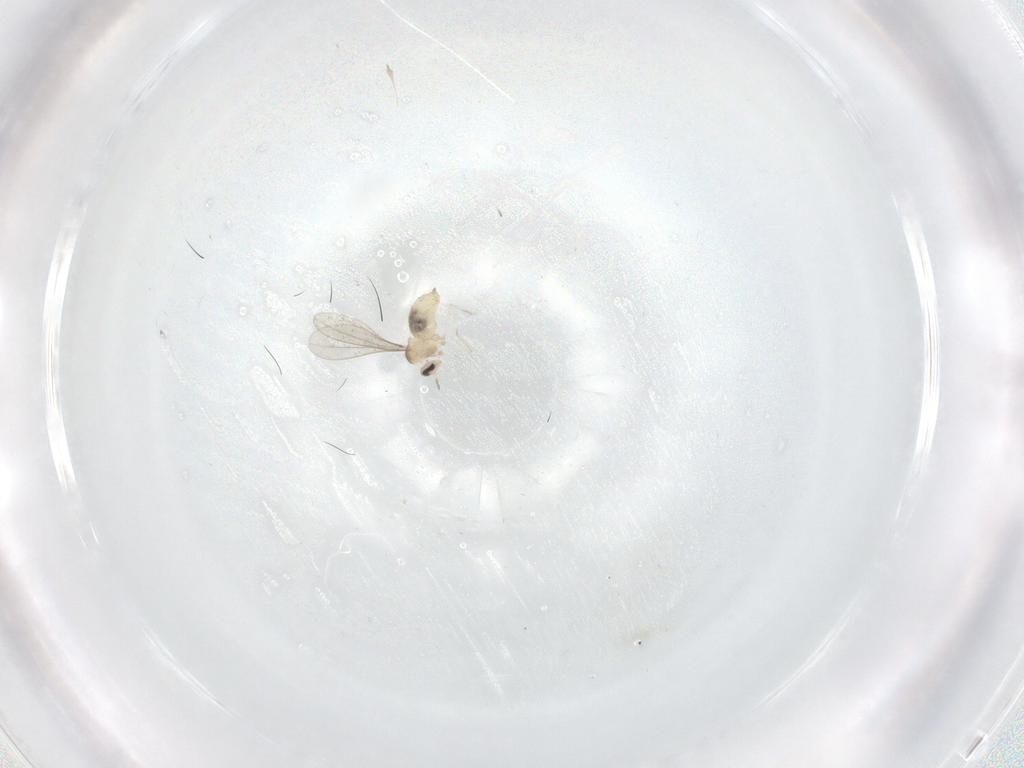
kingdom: Animalia
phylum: Arthropoda
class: Insecta
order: Diptera
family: Cecidomyiidae
